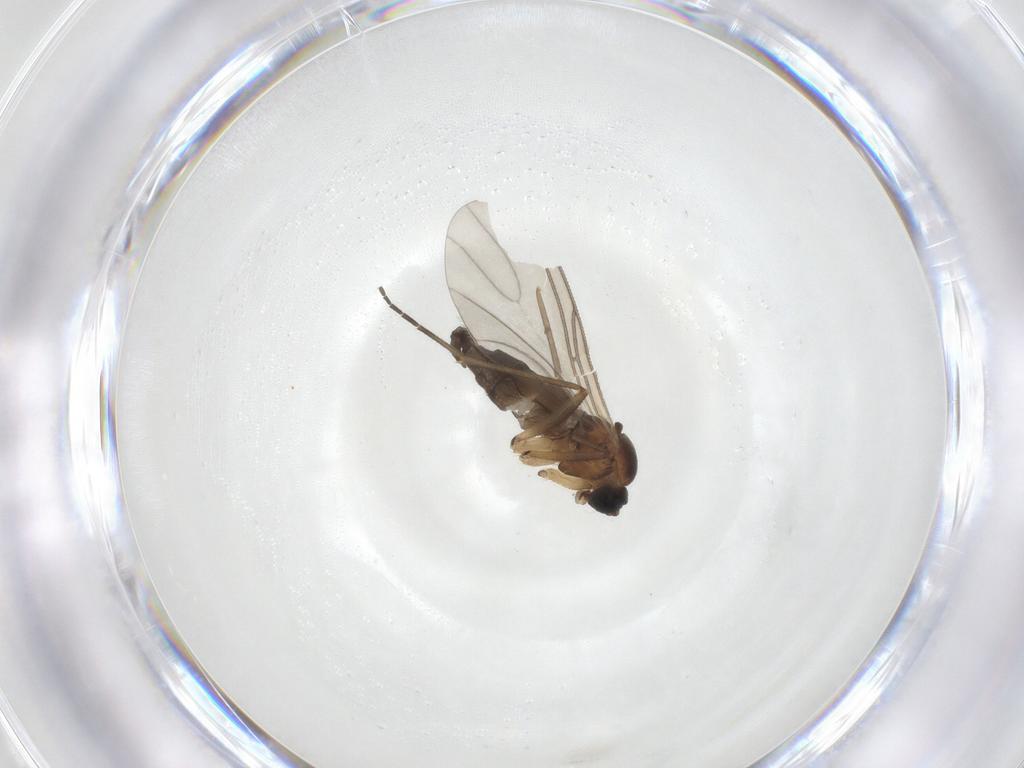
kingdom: Animalia
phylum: Arthropoda
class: Insecta
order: Diptera
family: Sciaridae
